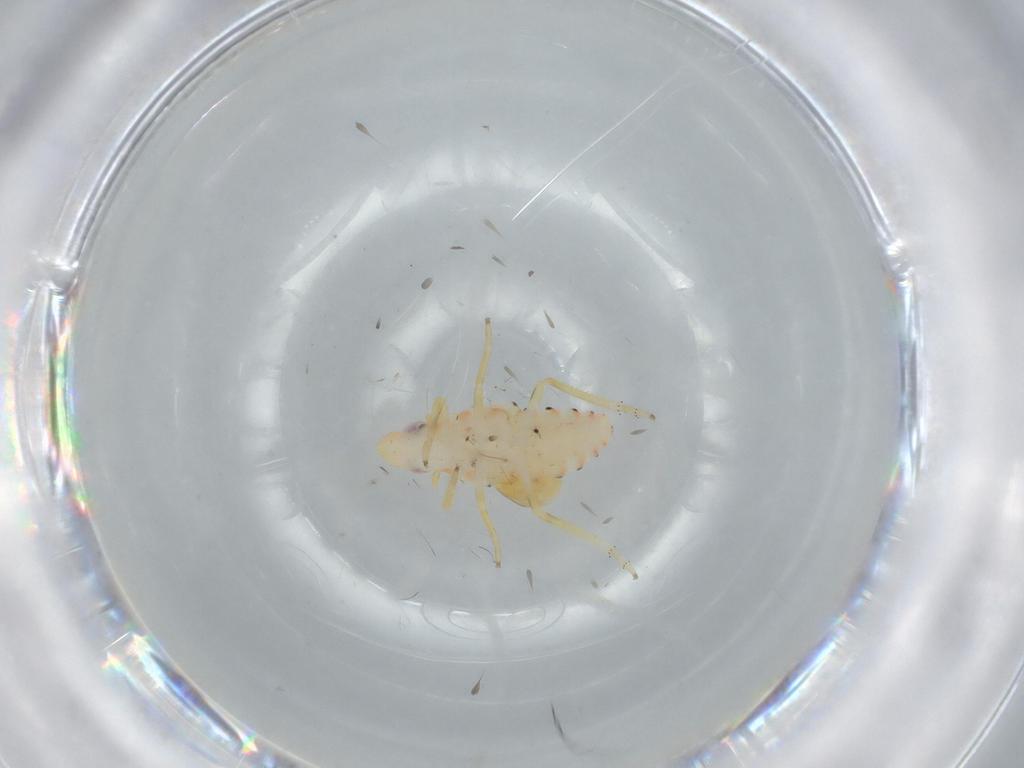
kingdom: Animalia
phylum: Arthropoda
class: Insecta
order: Hemiptera
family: Tropiduchidae
